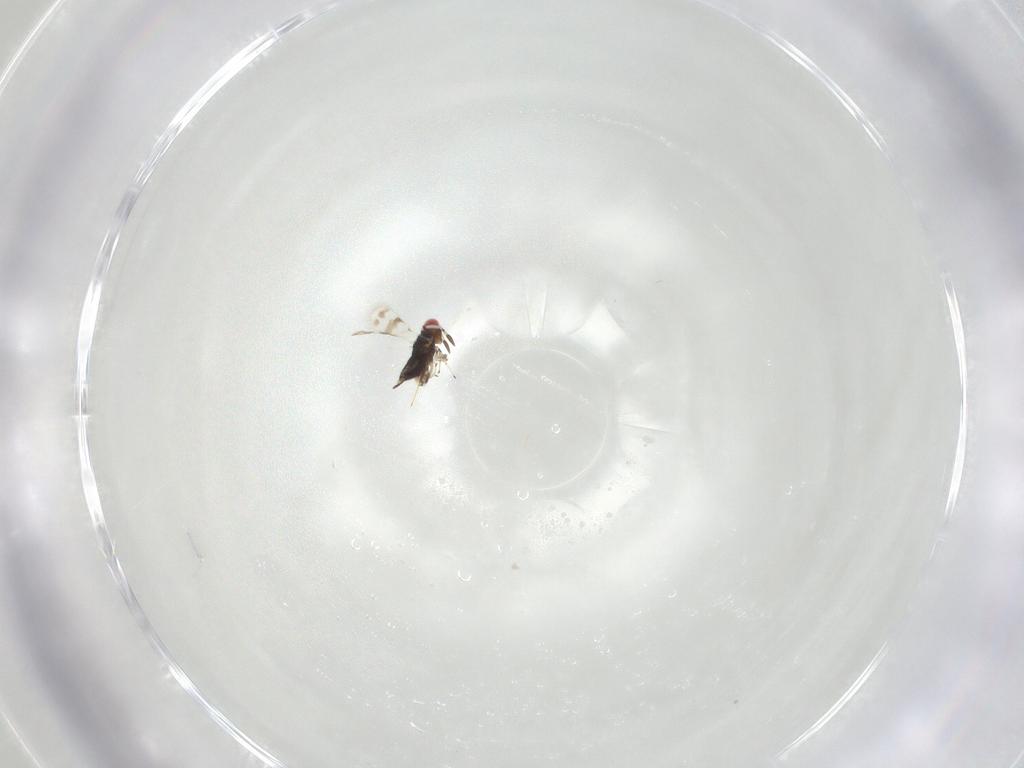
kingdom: Animalia
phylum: Arthropoda
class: Insecta
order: Hymenoptera
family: Azotidae
